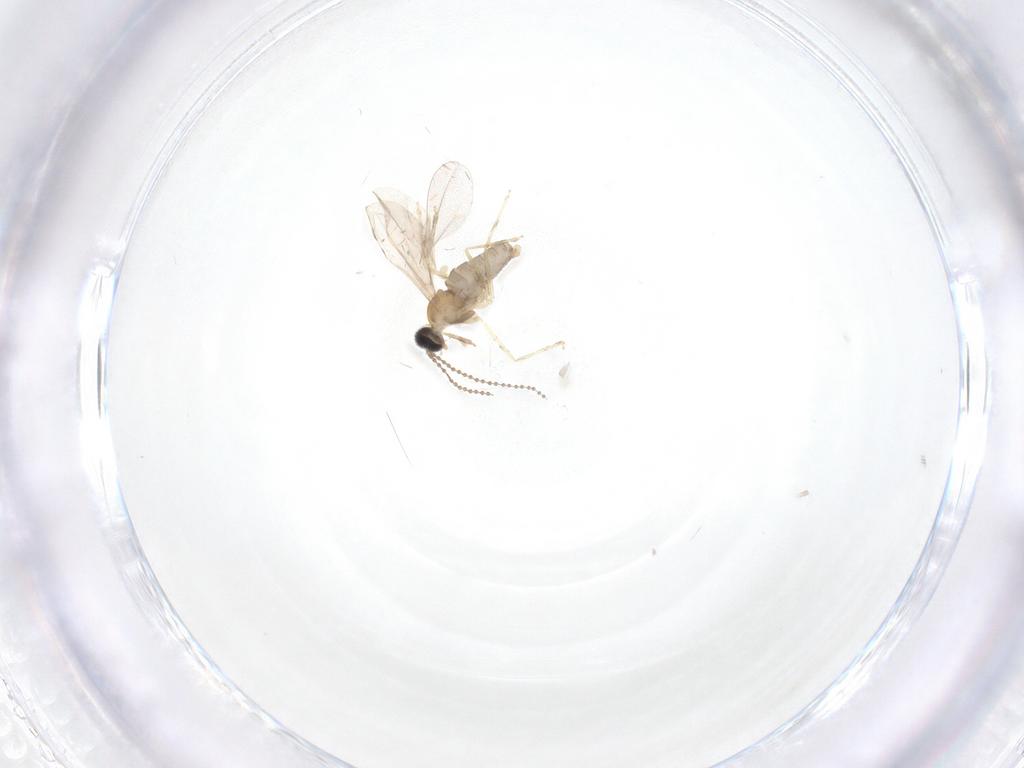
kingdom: Animalia
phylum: Arthropoda
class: Insecta
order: Diptera
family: Cecidomyiidae
